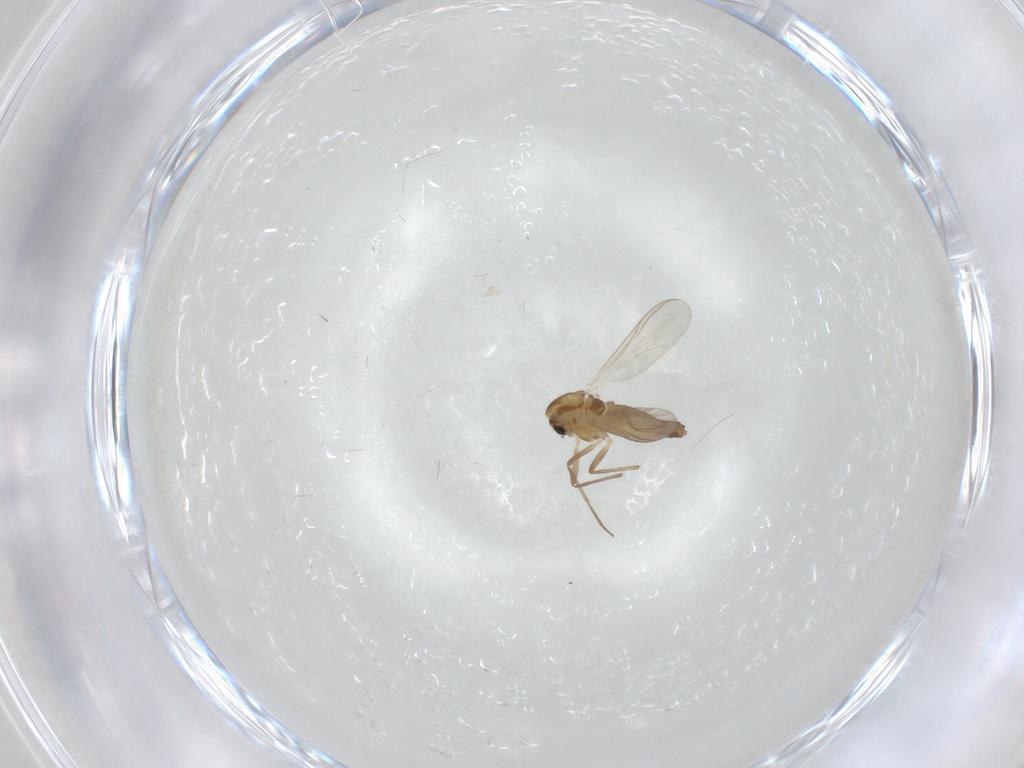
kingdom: Animalia
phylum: Arthropoda
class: Insecta
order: Diptera
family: Chironomidae
